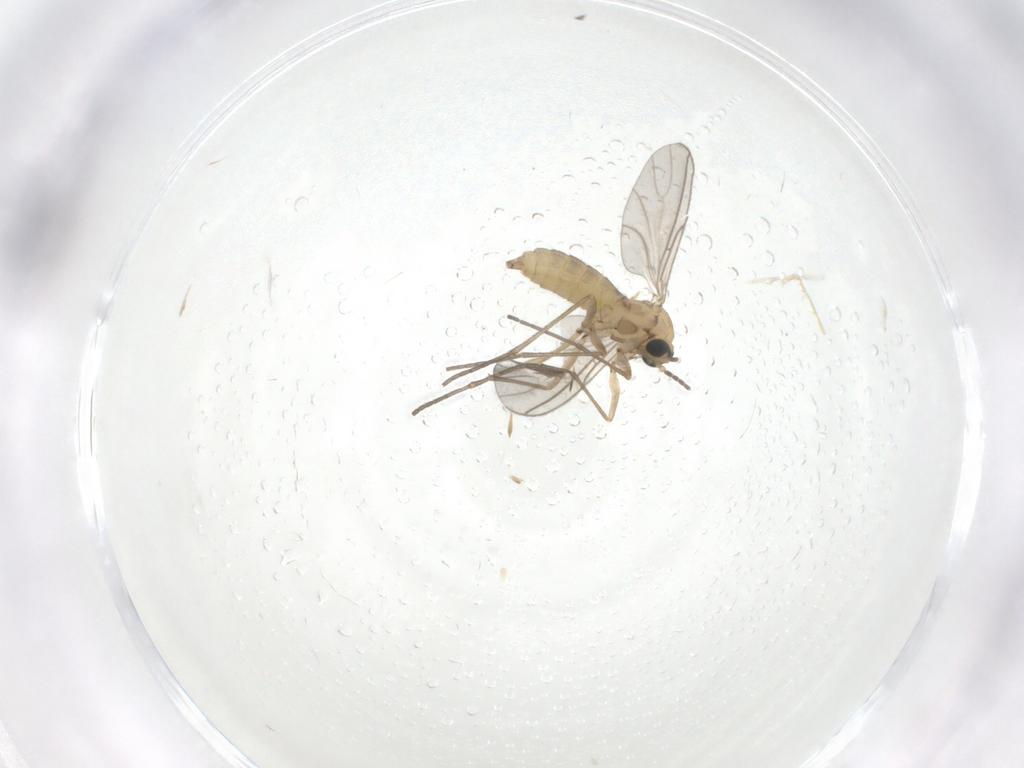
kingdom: Animalia
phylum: Arthropoda
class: Insecta
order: Diptera
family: Sciaridae
